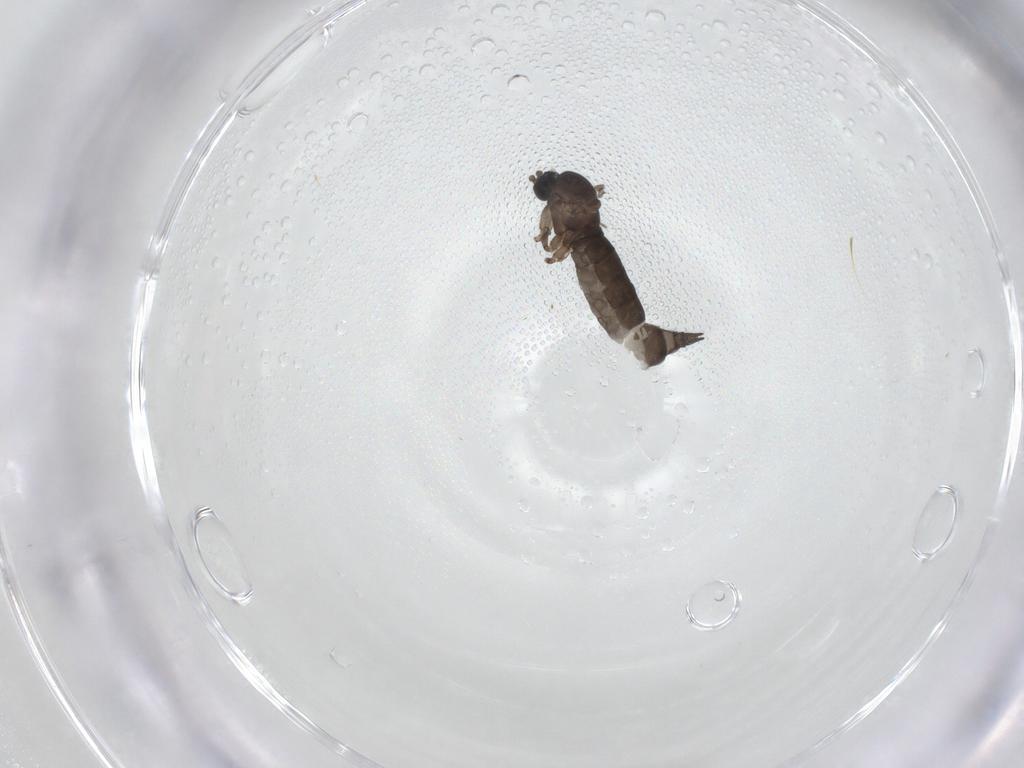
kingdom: Animalia
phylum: Arthropoda
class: Insecta
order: Diptera
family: Sciaridae
